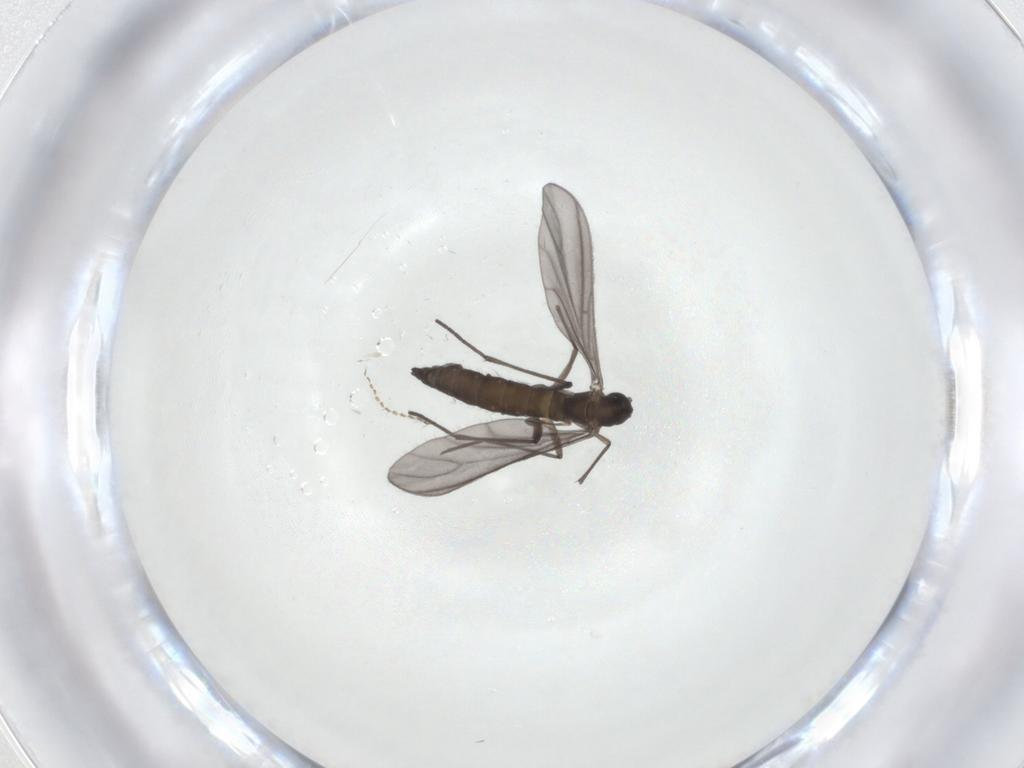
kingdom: Animalia
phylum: Arthropoda
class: Insecta
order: Diptera
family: Sciaridae
